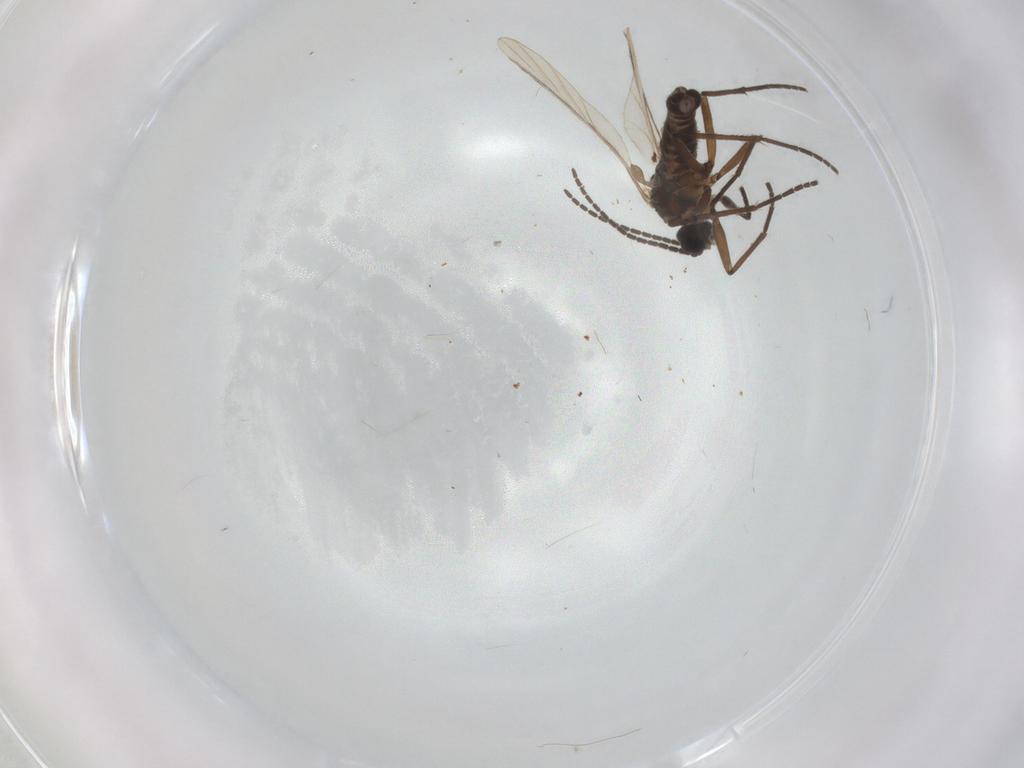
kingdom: Animalia
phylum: Arthropoda
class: Insecta
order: Diptera
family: Sciaridae
